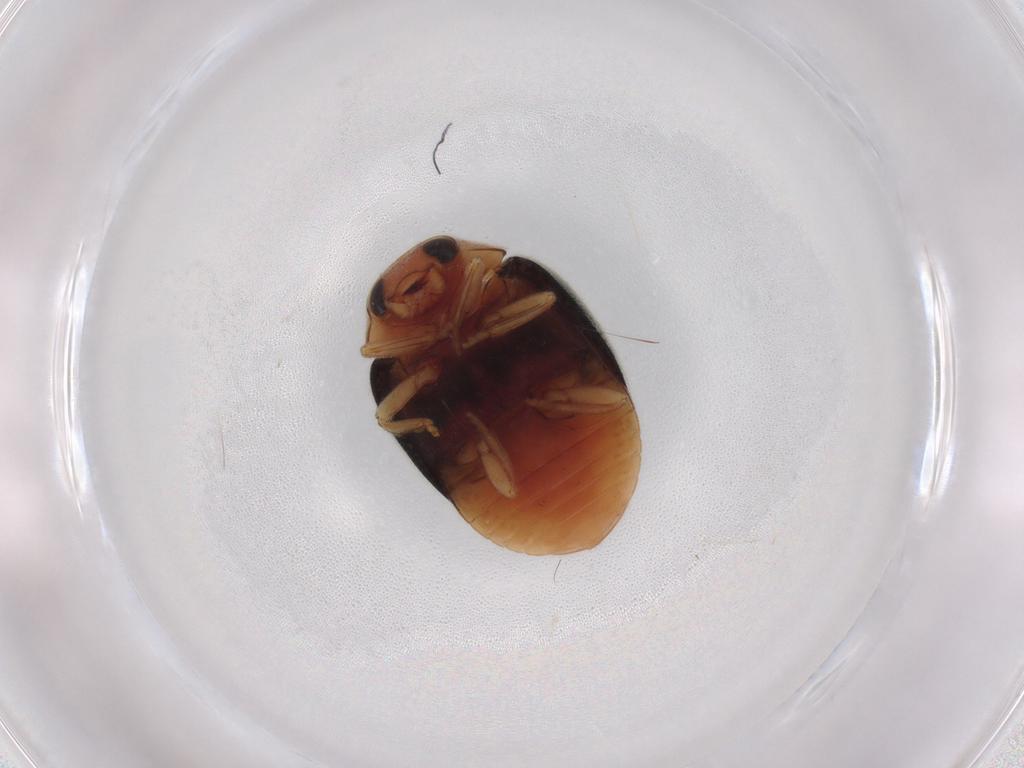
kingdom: Animalia
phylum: Arthropoda
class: Insecta
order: Coleoptera
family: Coccinellidae
